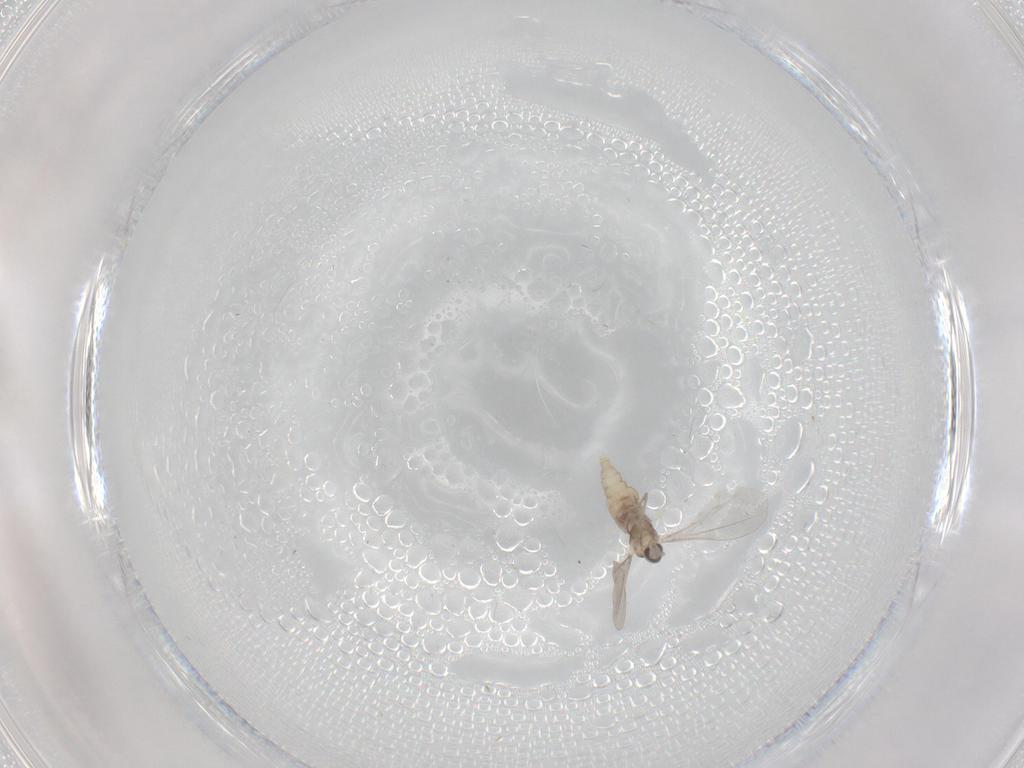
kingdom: Animalia
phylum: Arthropoda
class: Insecta
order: Diptera
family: Cecidomyiidae
